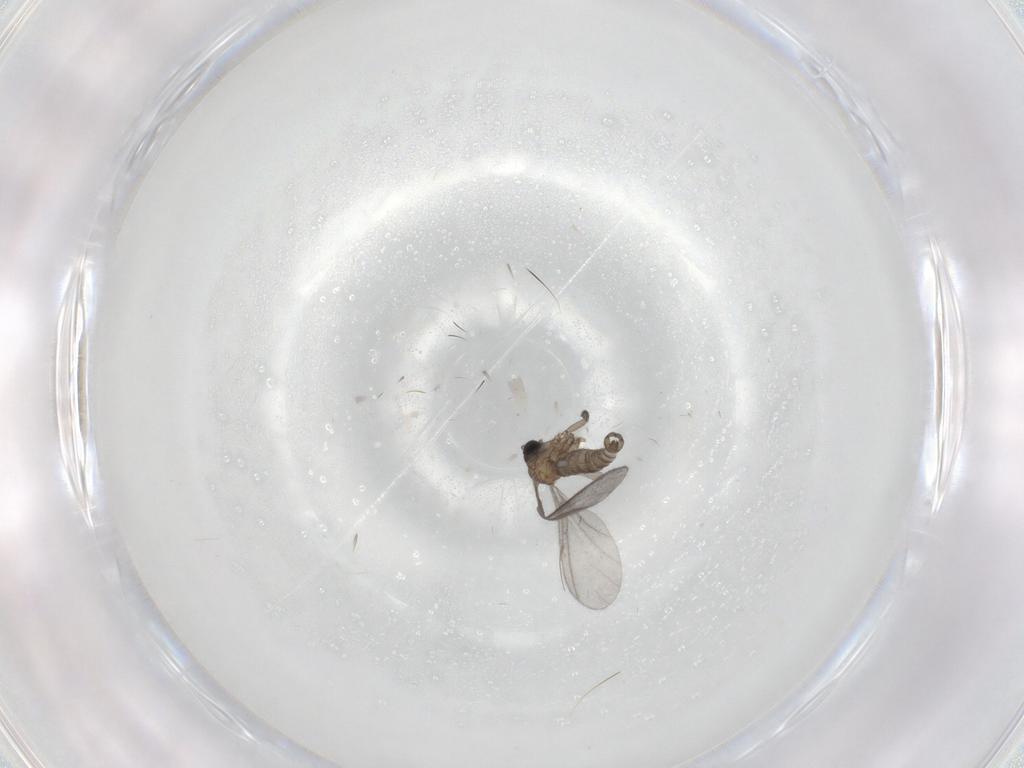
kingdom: Animalia
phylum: Arthropoda
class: Insecta
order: Diptera
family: Sciaridae
